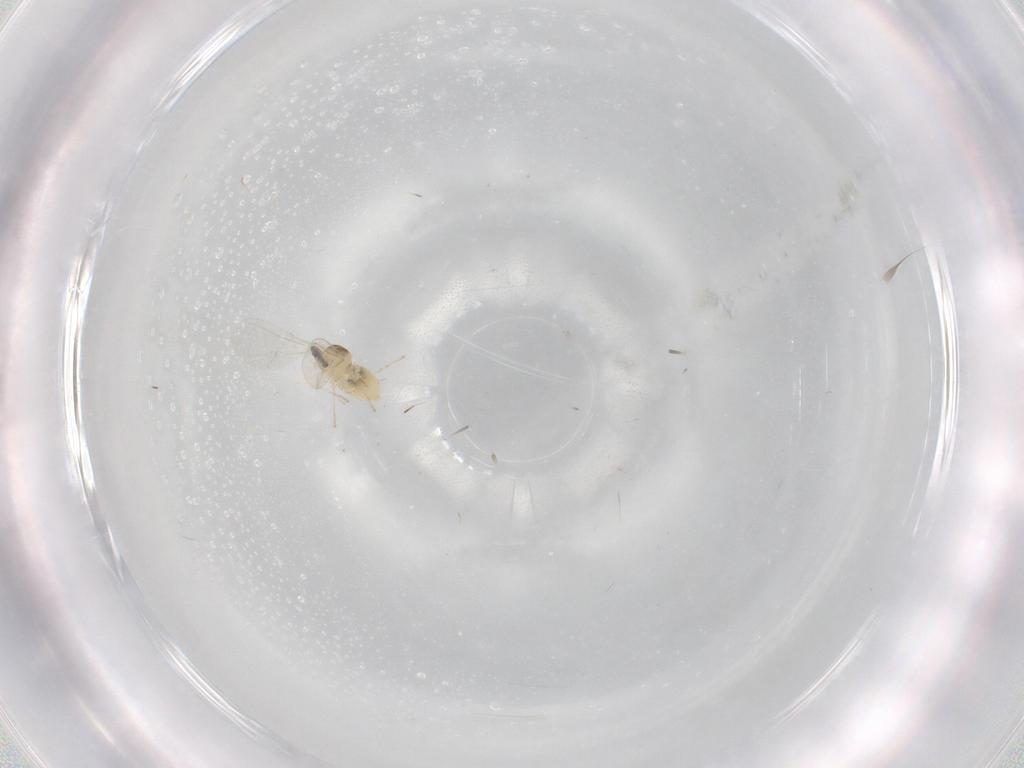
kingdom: Animalia
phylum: Arthropoda
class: Insecta
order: Diptera
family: Cecidomyiidae
